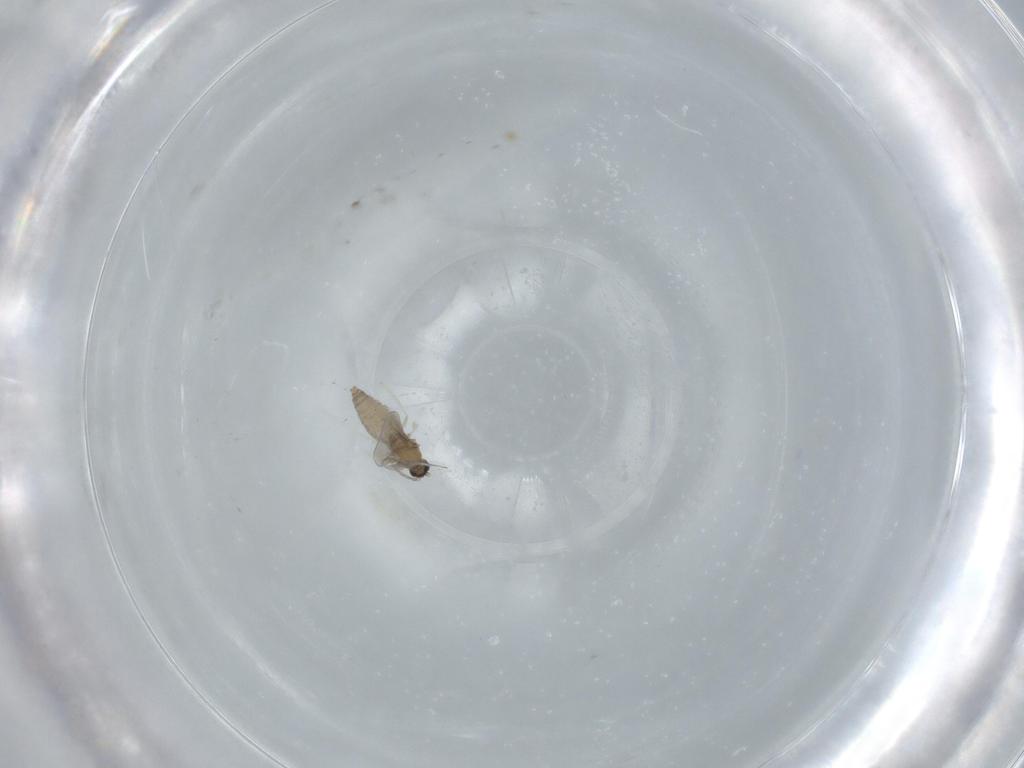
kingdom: Animalia
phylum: Arthropoda
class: Insecta
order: Diptera
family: Cecidomyiidae
